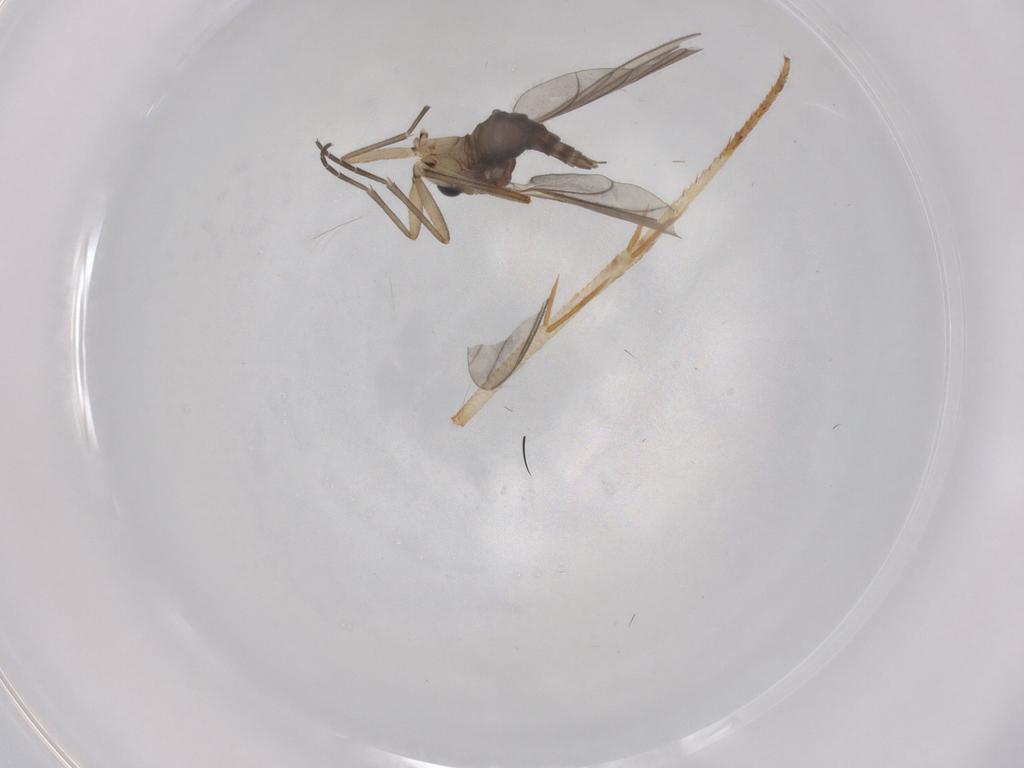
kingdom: Animalia
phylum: Arthropoda
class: Insecta
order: Diptera
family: Sciaridae
